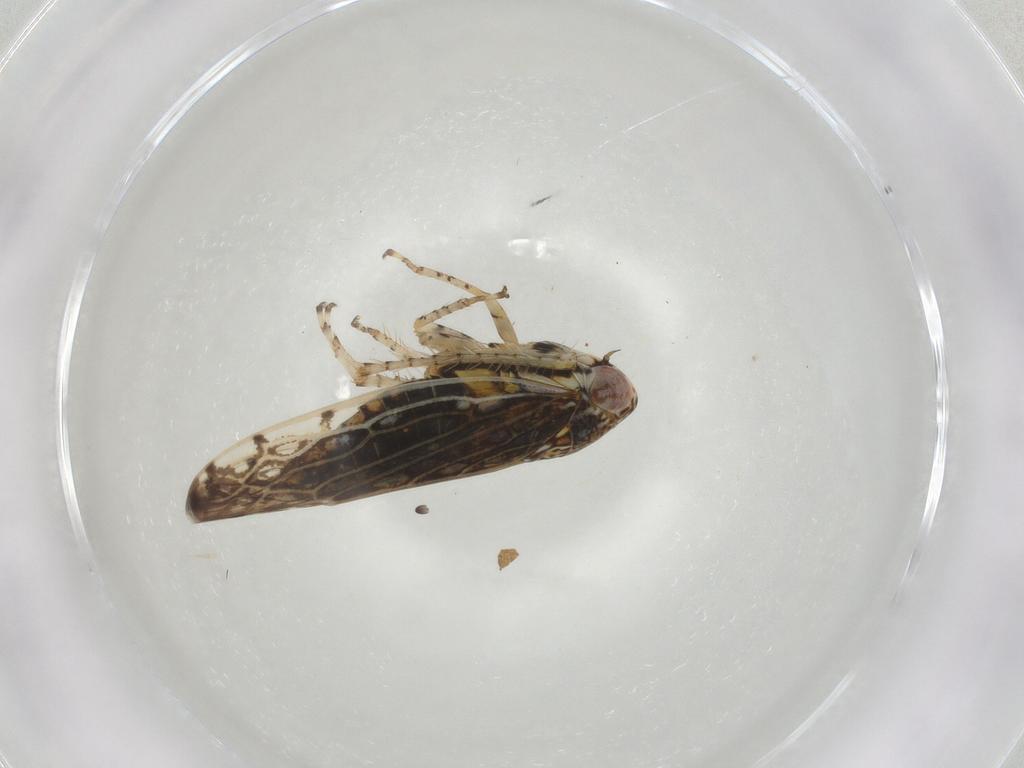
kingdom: Animalia
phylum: Arthropoda
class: Insecta
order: Hemiptera
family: Cicadellidae
